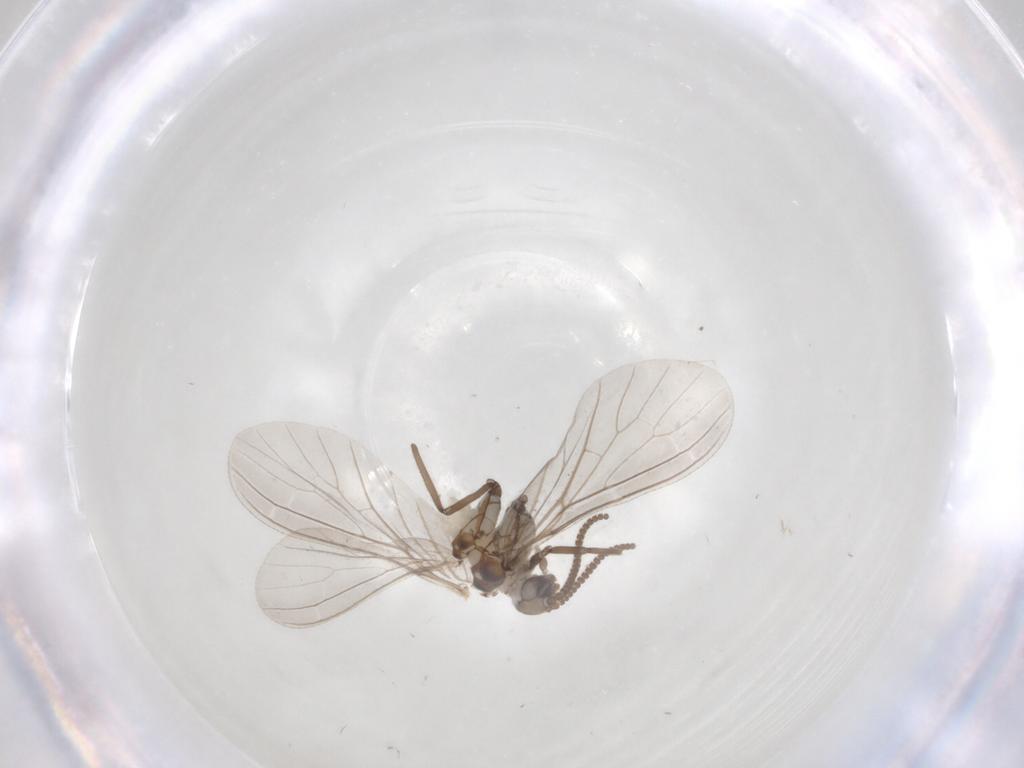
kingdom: Animalia
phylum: Arthropoda
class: Insecta
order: Neuroptera
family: Coniopterygidae
